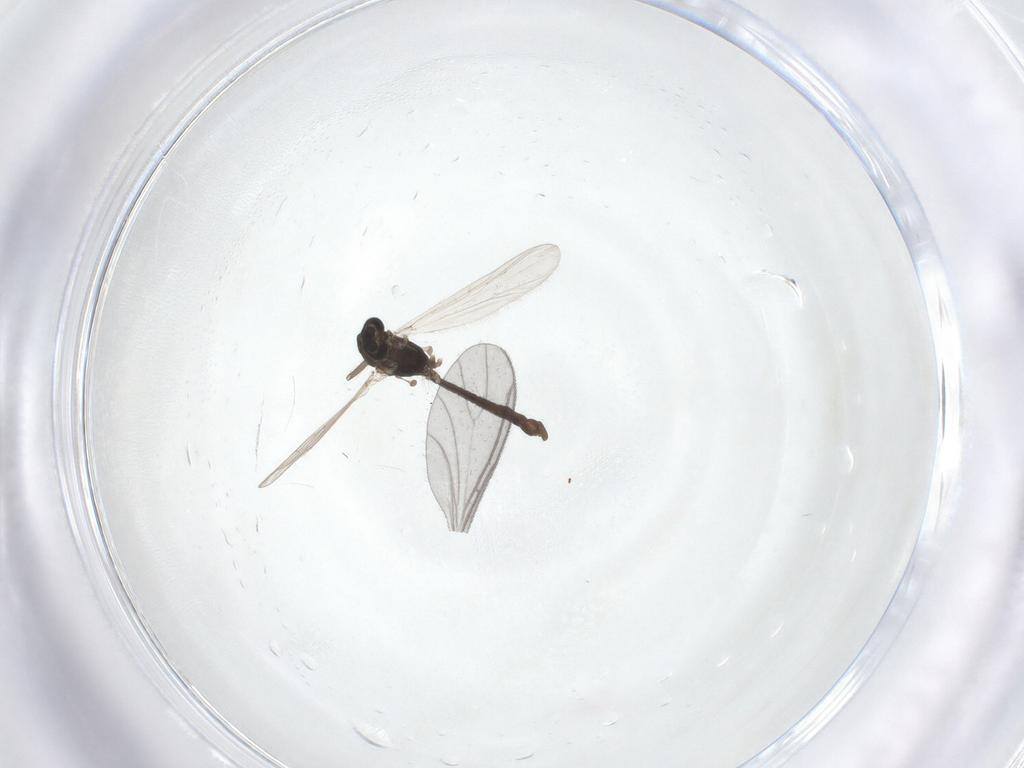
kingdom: Animalia
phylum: Arthropoda
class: Insecta
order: Diptera
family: Chironomidae
